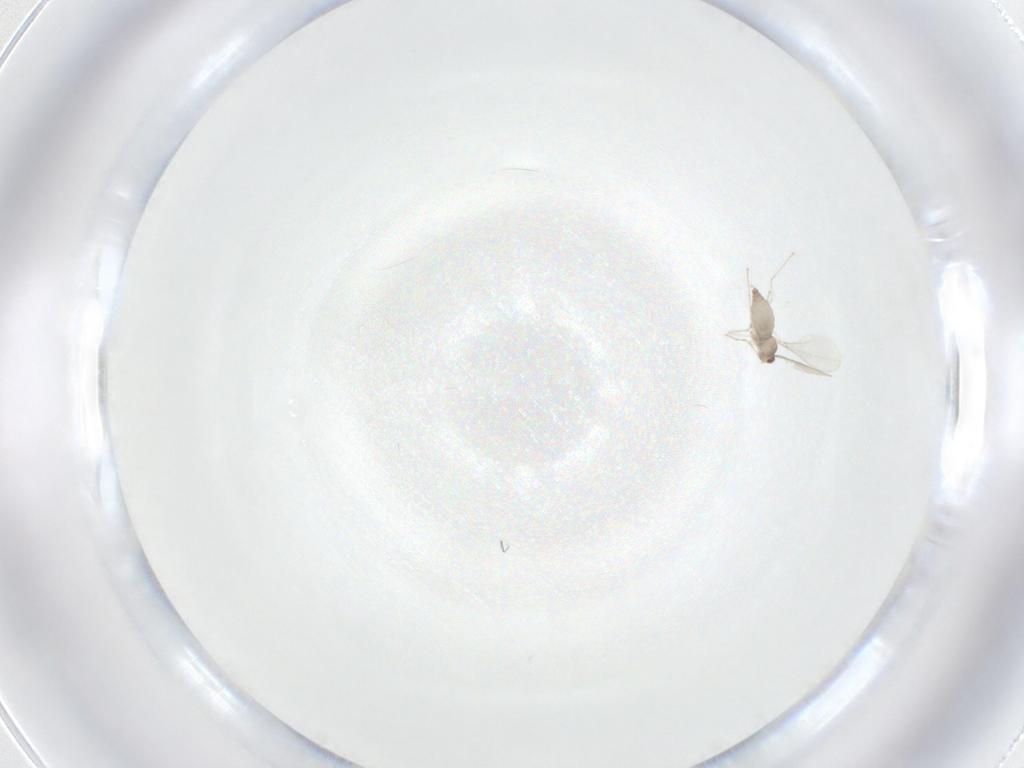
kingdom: Animalia
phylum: Arthropoda
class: Insecta
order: Diptera
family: Cecidomyiidae
